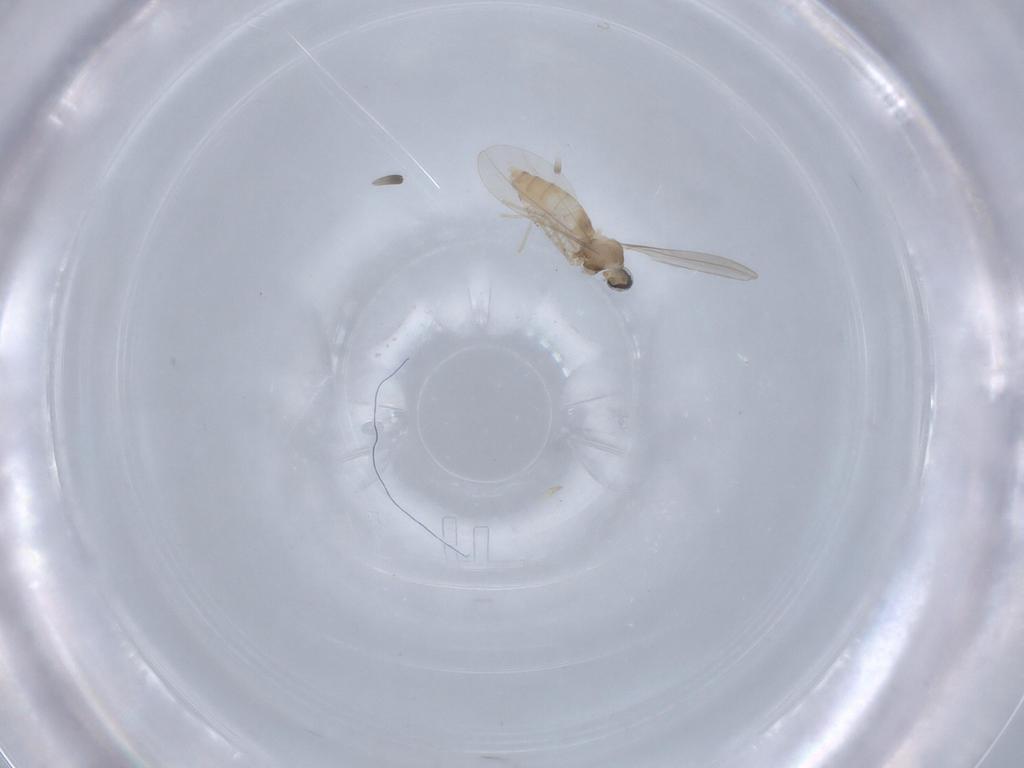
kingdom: Animalia
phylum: Arthropoda
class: Insecta
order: Diptera
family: Cecidomyiidae
